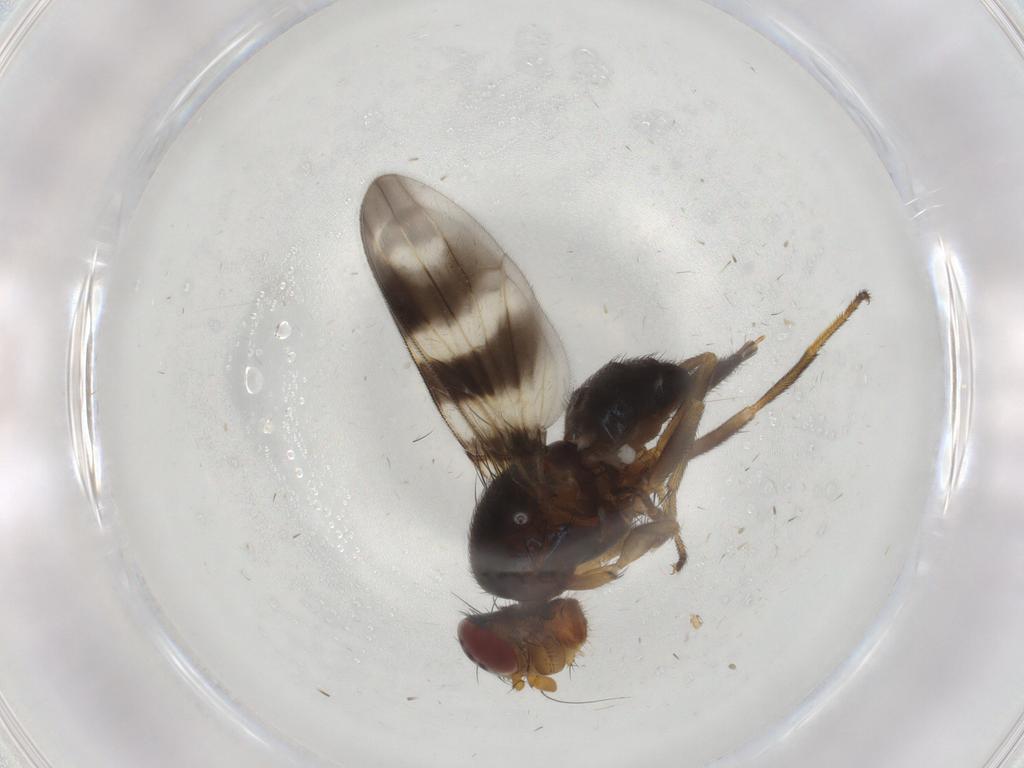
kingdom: Animalia
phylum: Arthropoda
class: Insecta
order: Diptera
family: Psychodidae
